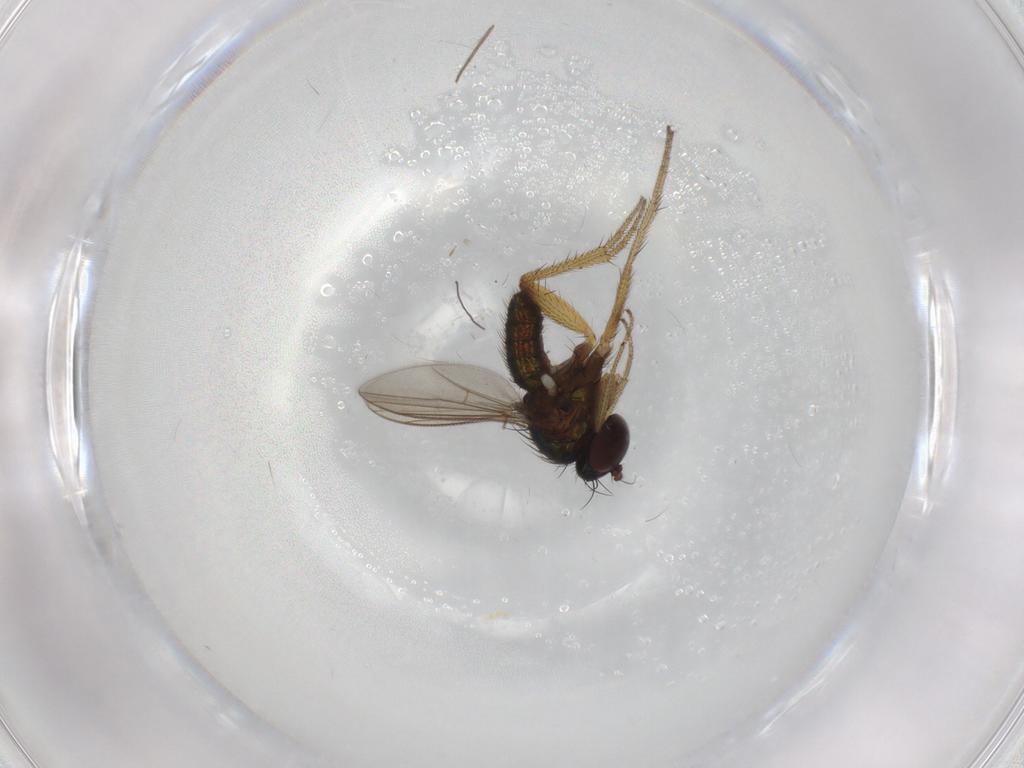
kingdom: Animalia
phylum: Arthropoda
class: Insecta
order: Diptera
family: Sciaridae
